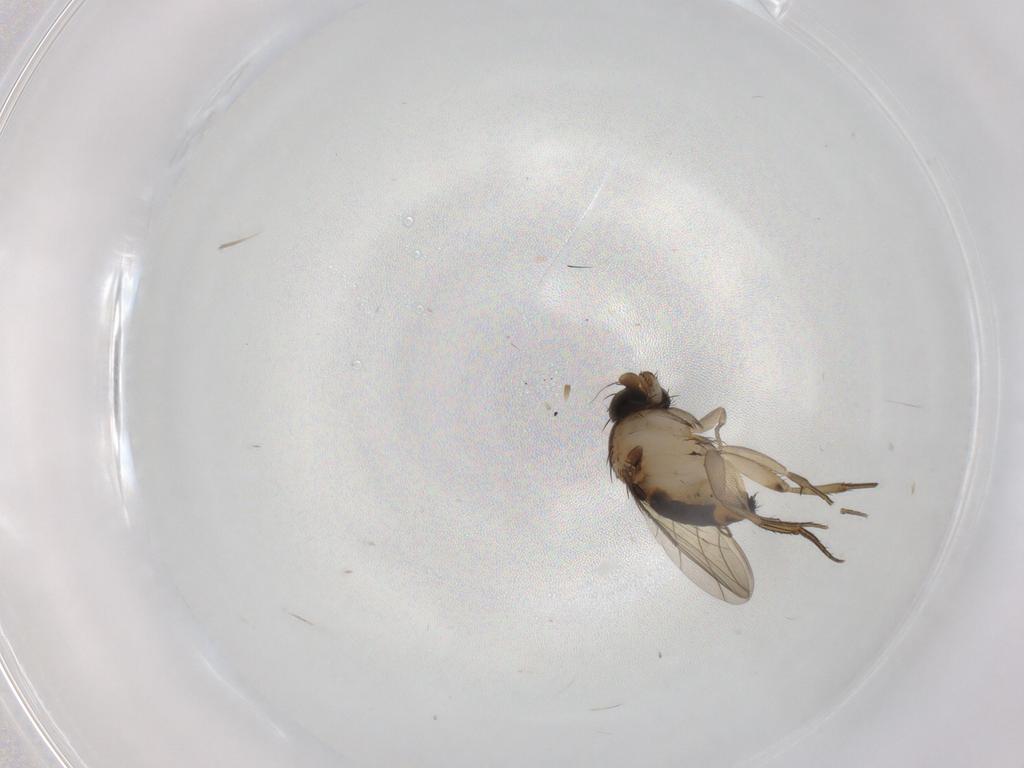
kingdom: Animalia
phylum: Arthropoda
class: Insecta
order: Diptera
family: Phoridae
